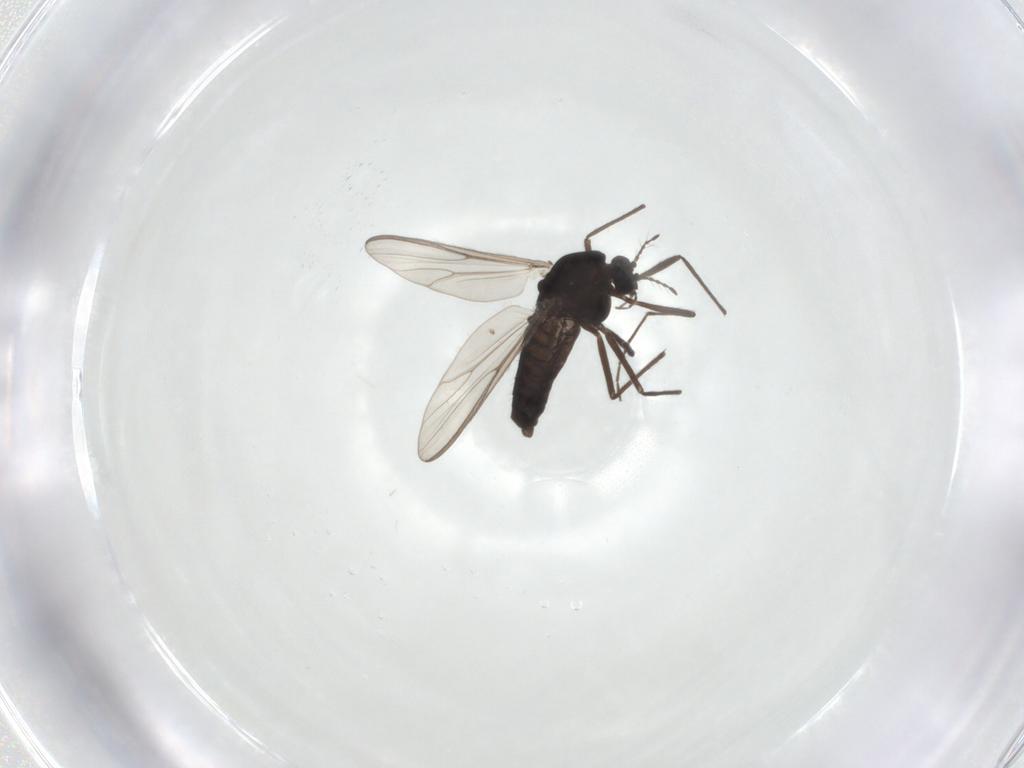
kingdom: Animalia
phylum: Arthropoda
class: Insecta
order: Diptera
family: Chironomidae
